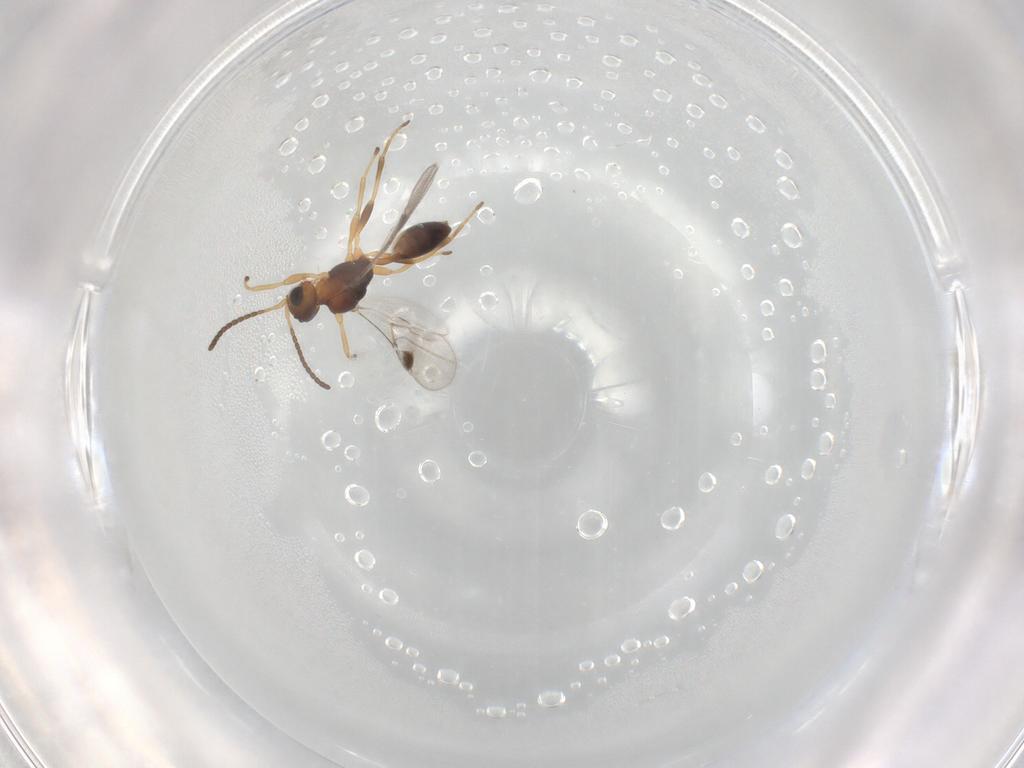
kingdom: Animalia
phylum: Arthropoda
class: Insecta
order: Hymenoptera
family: Braconidae
